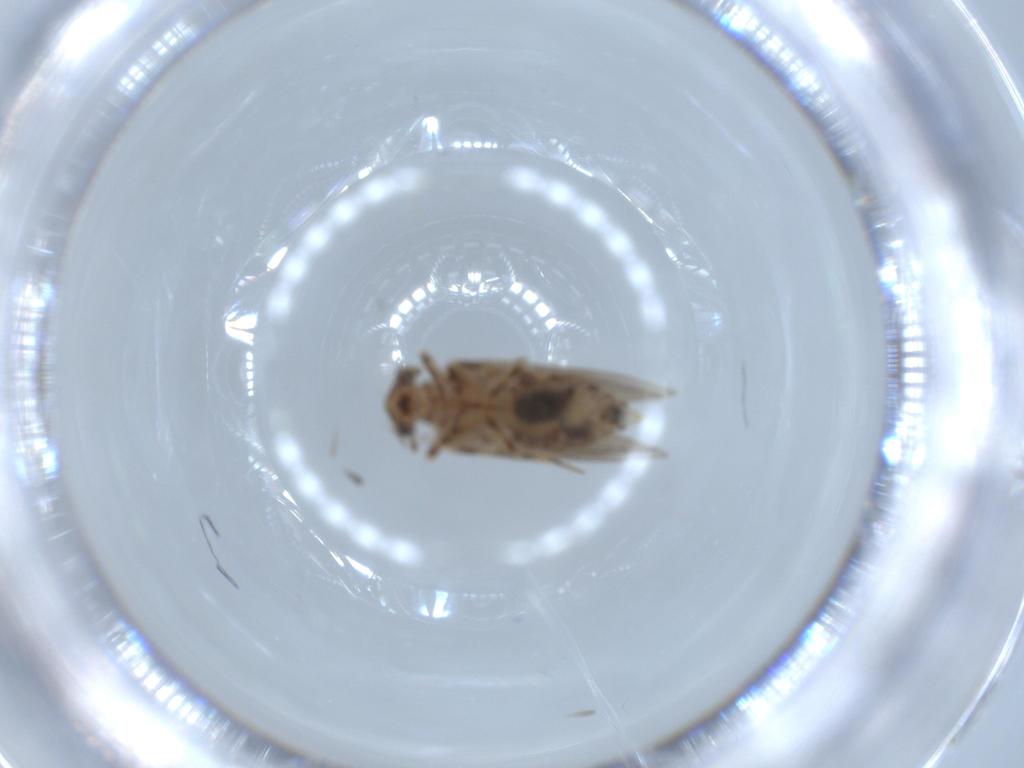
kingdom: Animalia
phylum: Arthropoda
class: Insecta
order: Psocodea
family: Lepidopsocidae
